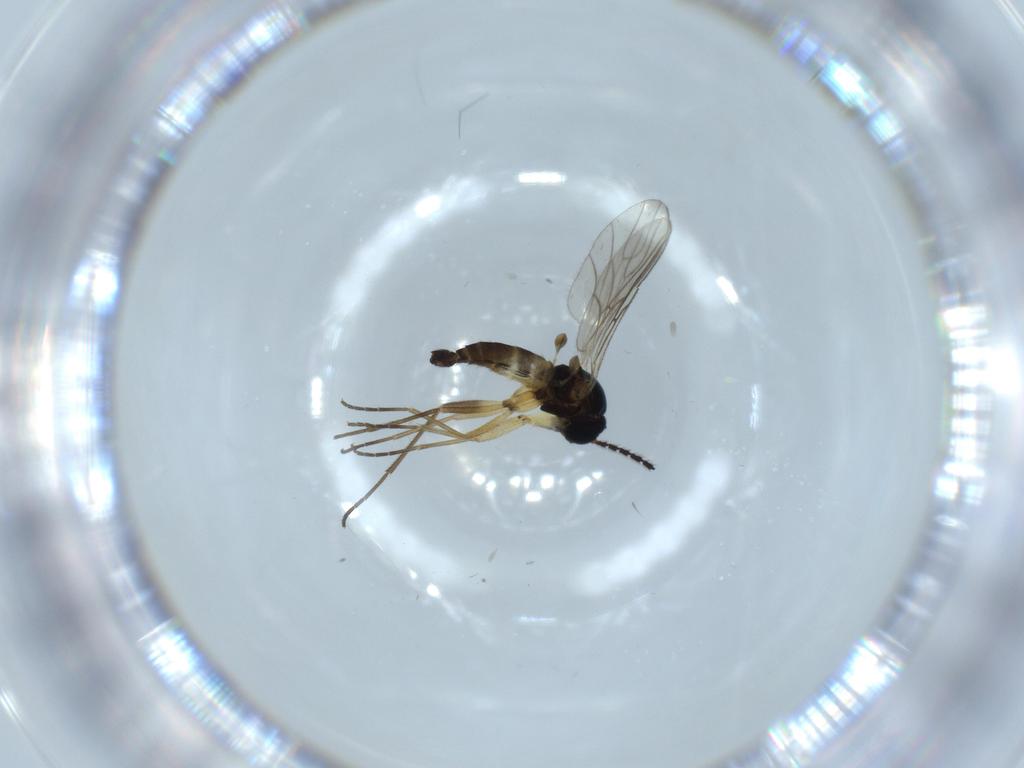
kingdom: Animalia
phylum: Arthropoda
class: Insecta
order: Diptera
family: Sciaridae
